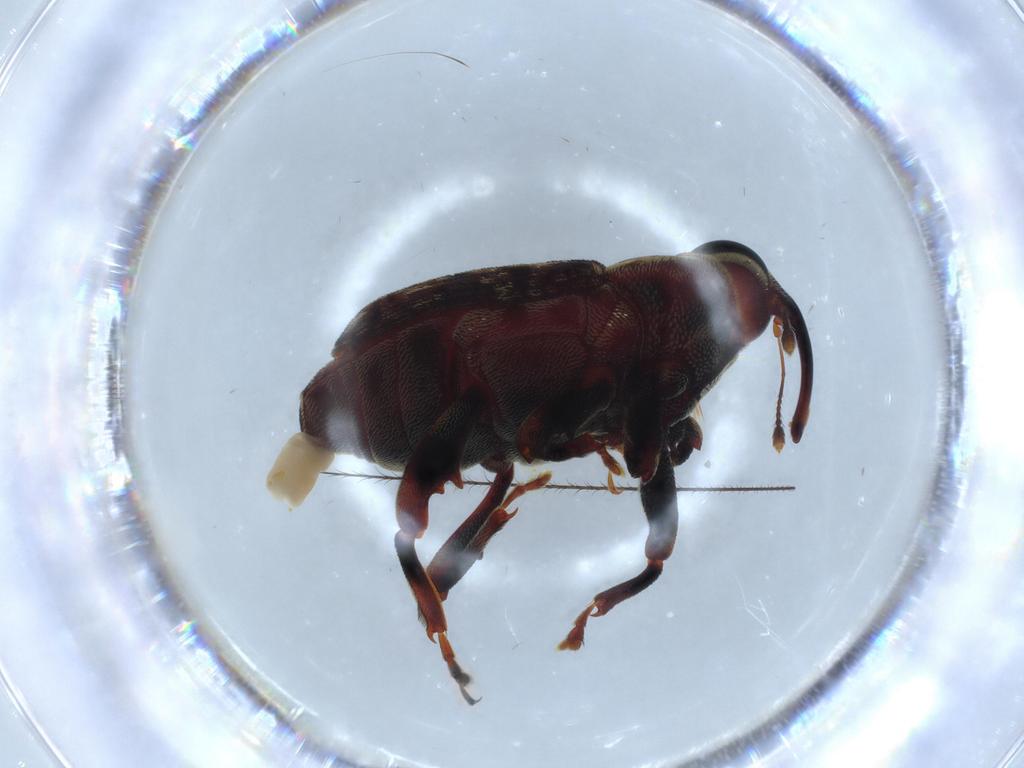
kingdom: Animalia
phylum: Arthropoda
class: Insecta
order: Coleoptera
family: Curculionidae
